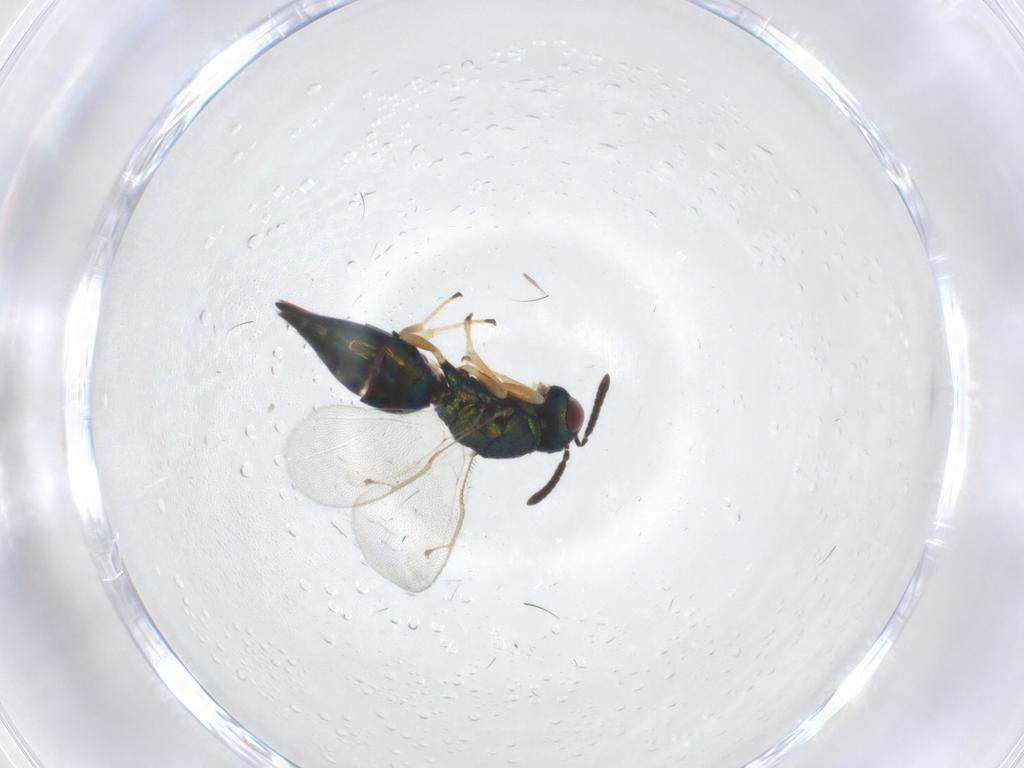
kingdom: Animalia
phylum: Arthropoda
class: Insecta
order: Hymenoptera
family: Pteromalidae
